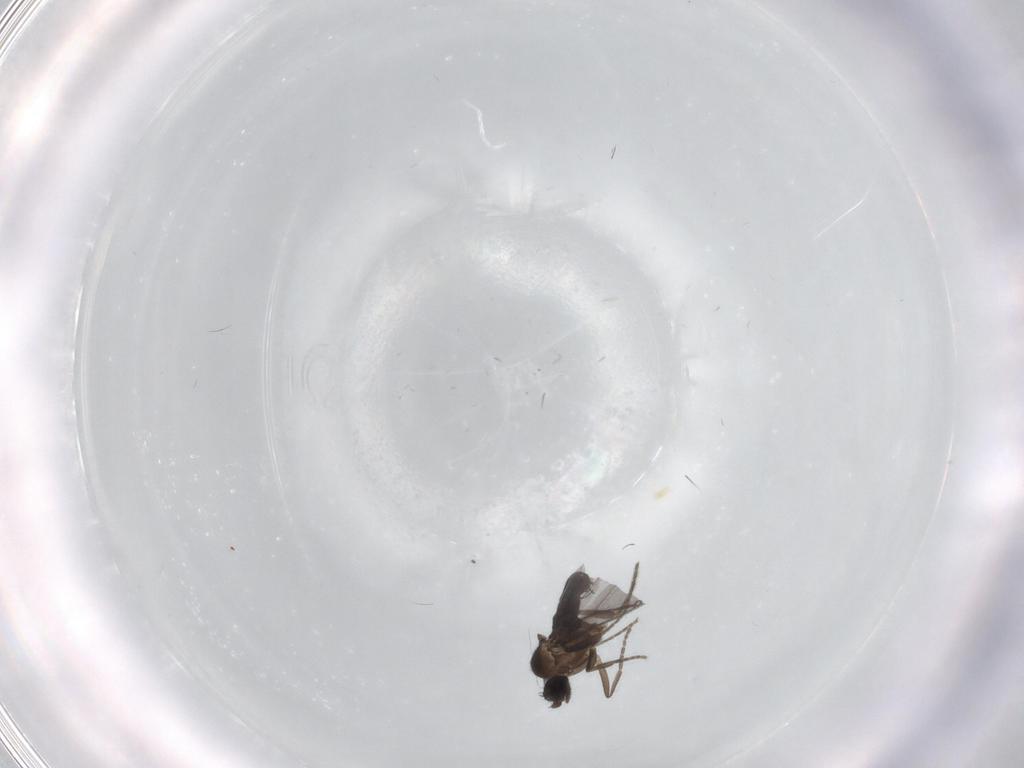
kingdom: Animalia
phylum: Arthropoda
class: Insecta
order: Diptera
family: Phoridae
